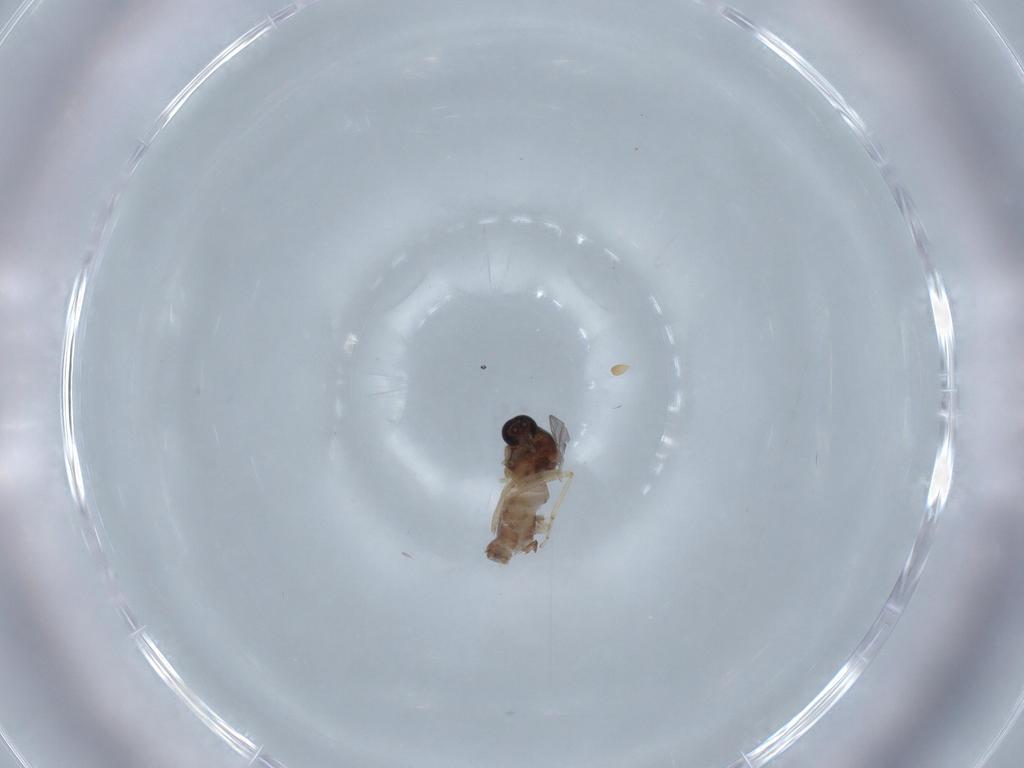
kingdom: Animalia
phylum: Arthropoda
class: Insecta
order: Diptera
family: Ceratopogonidae
